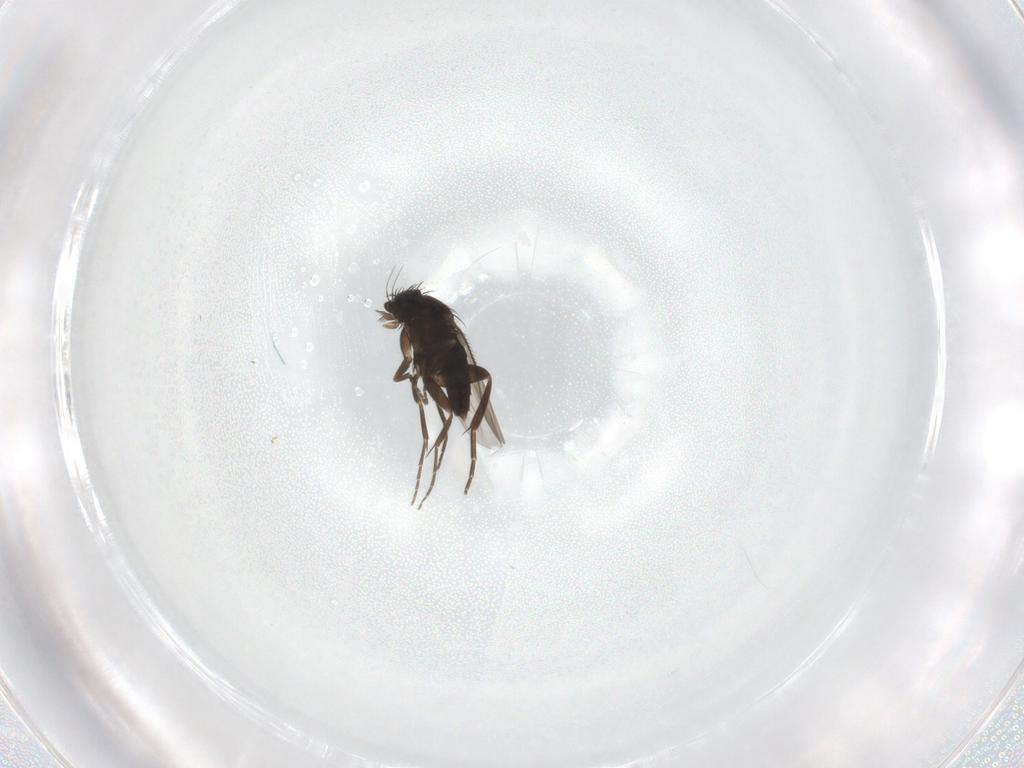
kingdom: Animalia
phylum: Arthropoda
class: Insecta
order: Diptera
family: Phoridae
